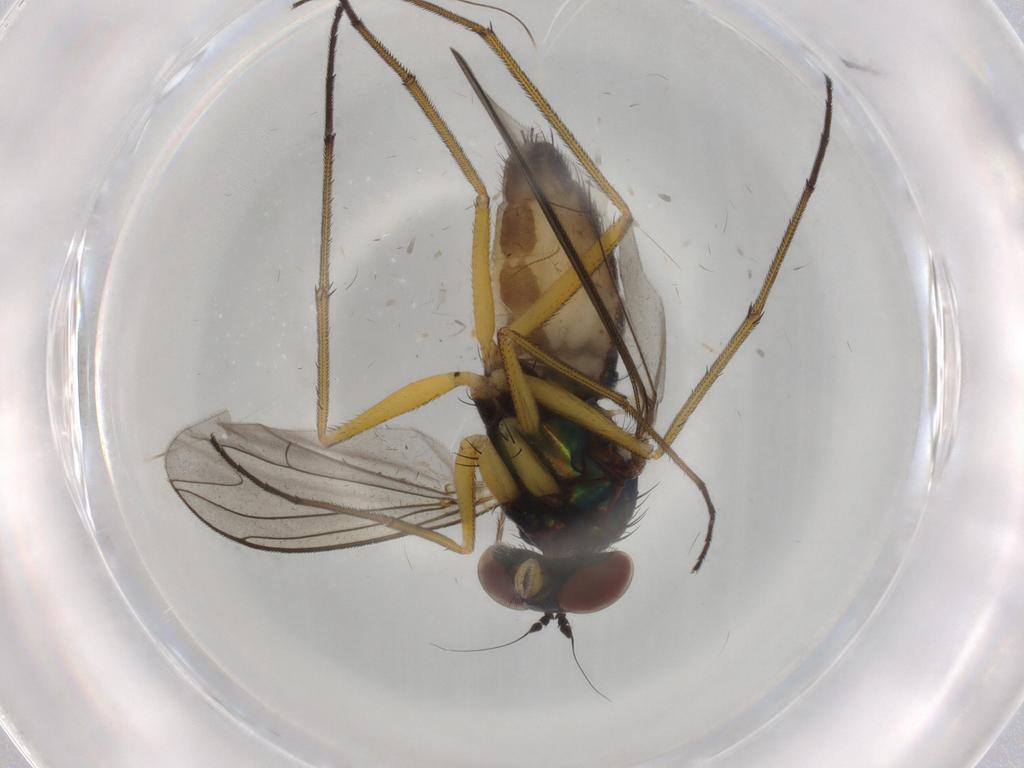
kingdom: Animalia
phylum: Arthropoda
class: Insecta
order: Diptera
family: Dolichopodidae
